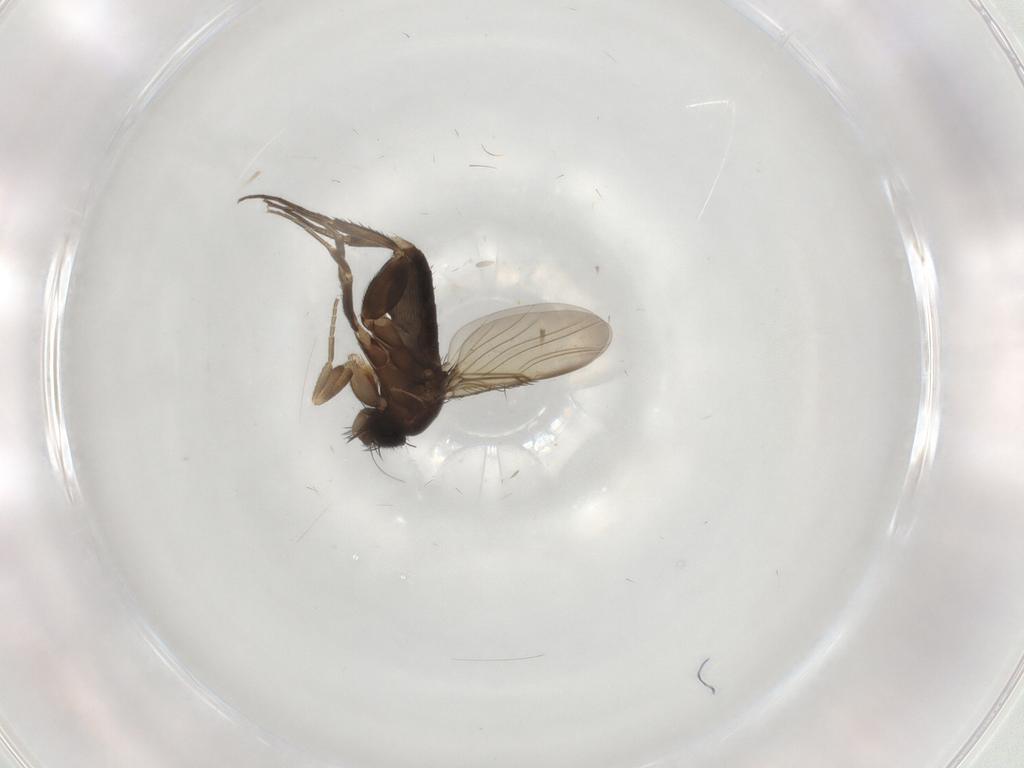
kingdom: Animalia
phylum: Arthropoda
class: Insecta
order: Diptera
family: Phoridae
